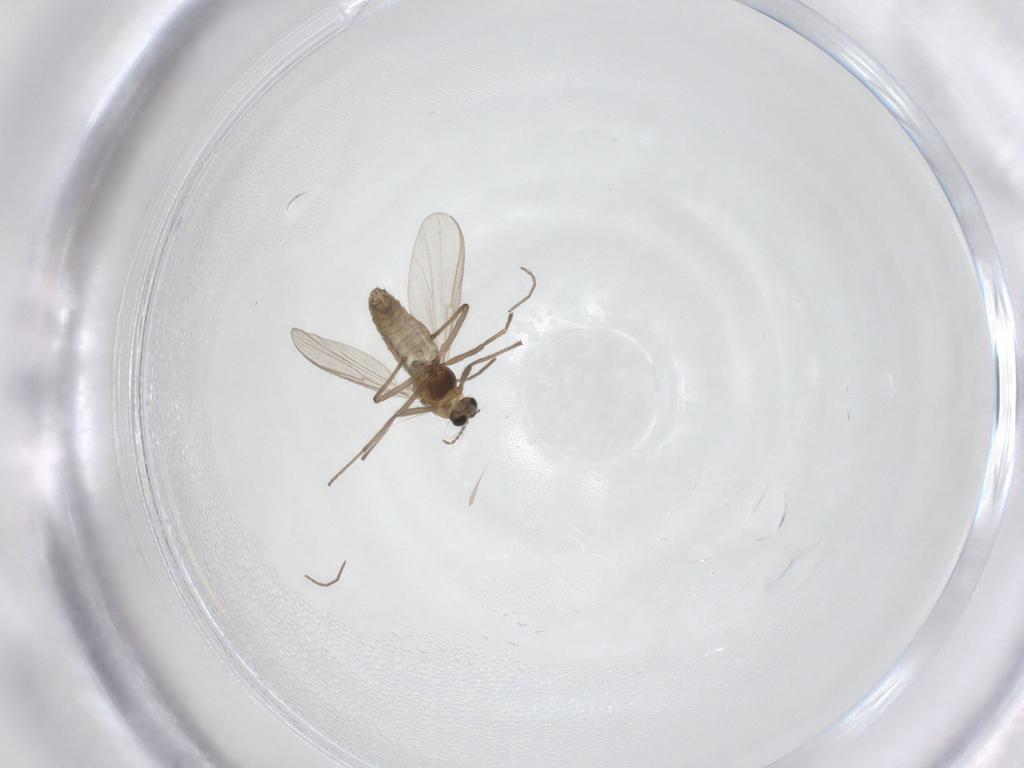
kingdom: Animalia
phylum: Arthropoda
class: Insecta
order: Diptera
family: Chironomidae
